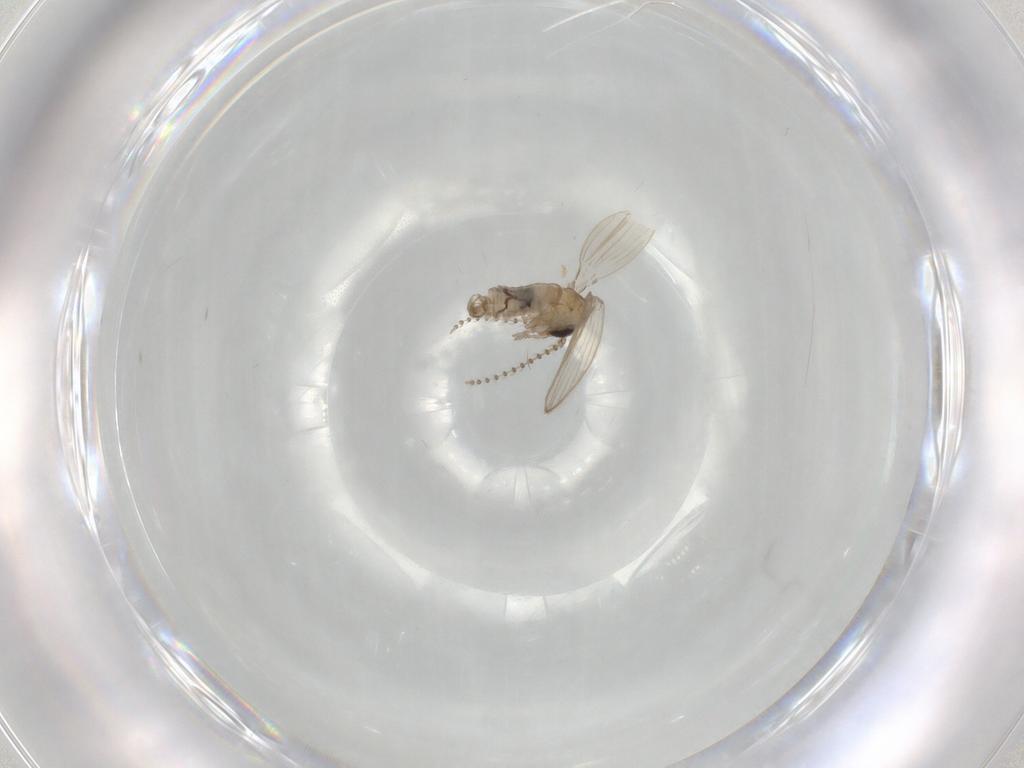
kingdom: Animalia
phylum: Arthropoda
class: Insecta
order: Diptera
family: Psychodidae
